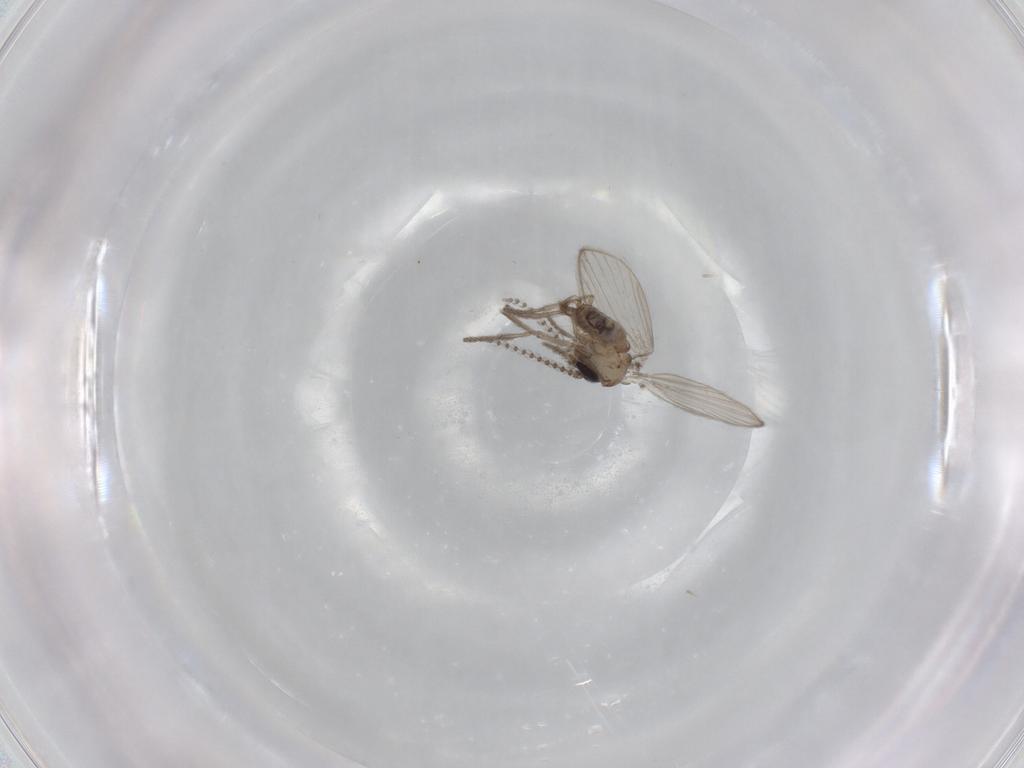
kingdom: Animalia
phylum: Arthropoda
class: Insecta
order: Diptera
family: Psychodidae
